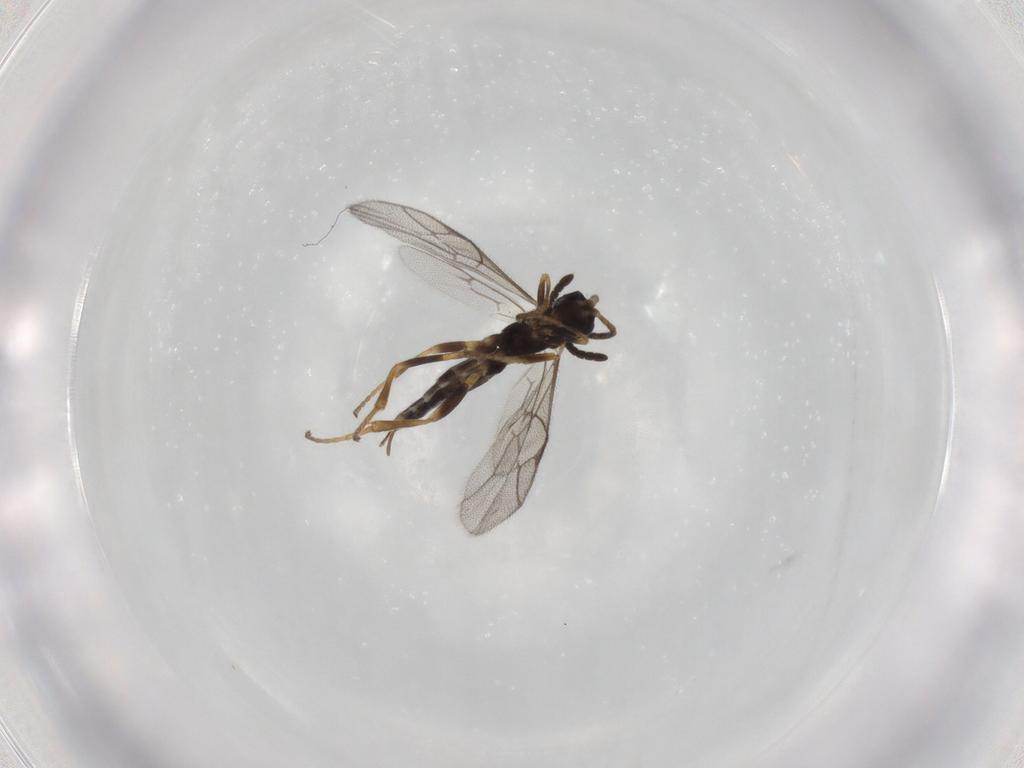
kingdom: Animalia
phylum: Arthropoda
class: Insecta
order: Hymenoptera
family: Ichneumonidae
